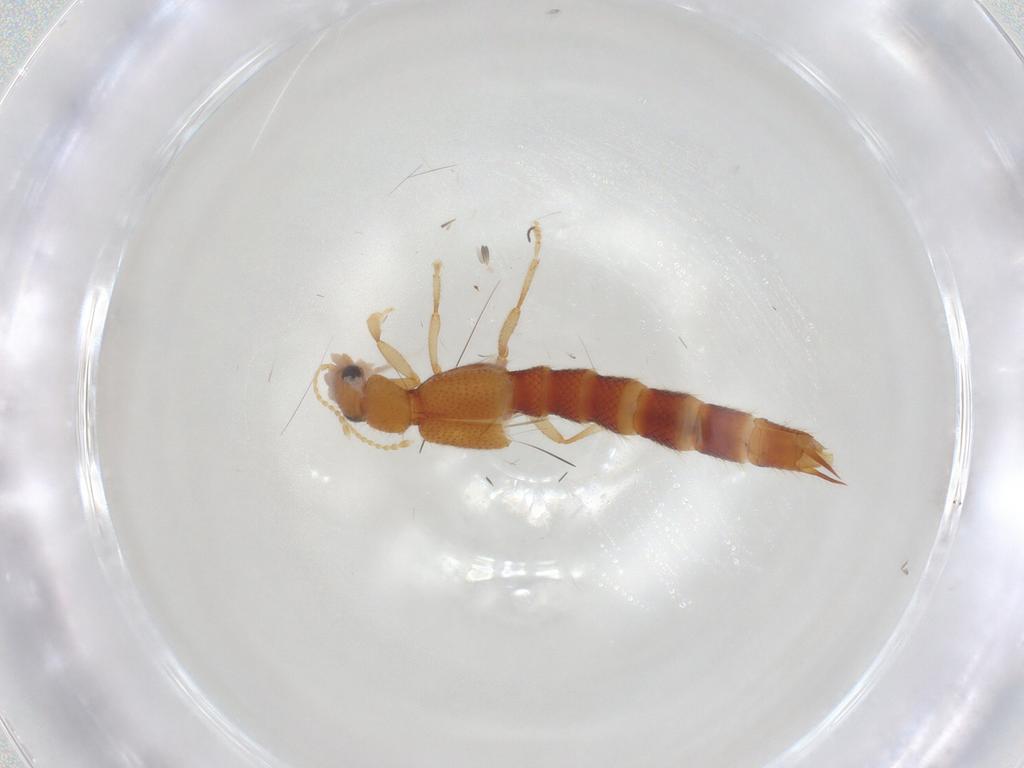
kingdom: Animalia
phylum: Arthropoda
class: Insecta
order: Coleoptera
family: Staphylinidae
